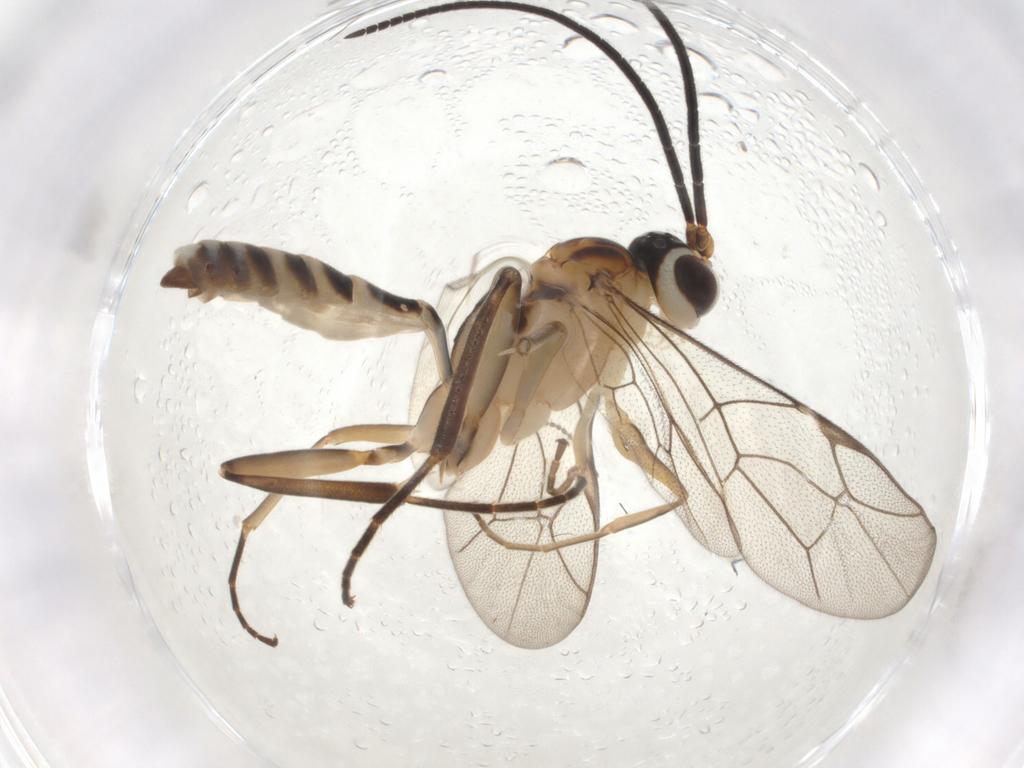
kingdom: Animalia
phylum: Arthropoda
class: Insecta
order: Hymenoptera
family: Ichneumonidae
